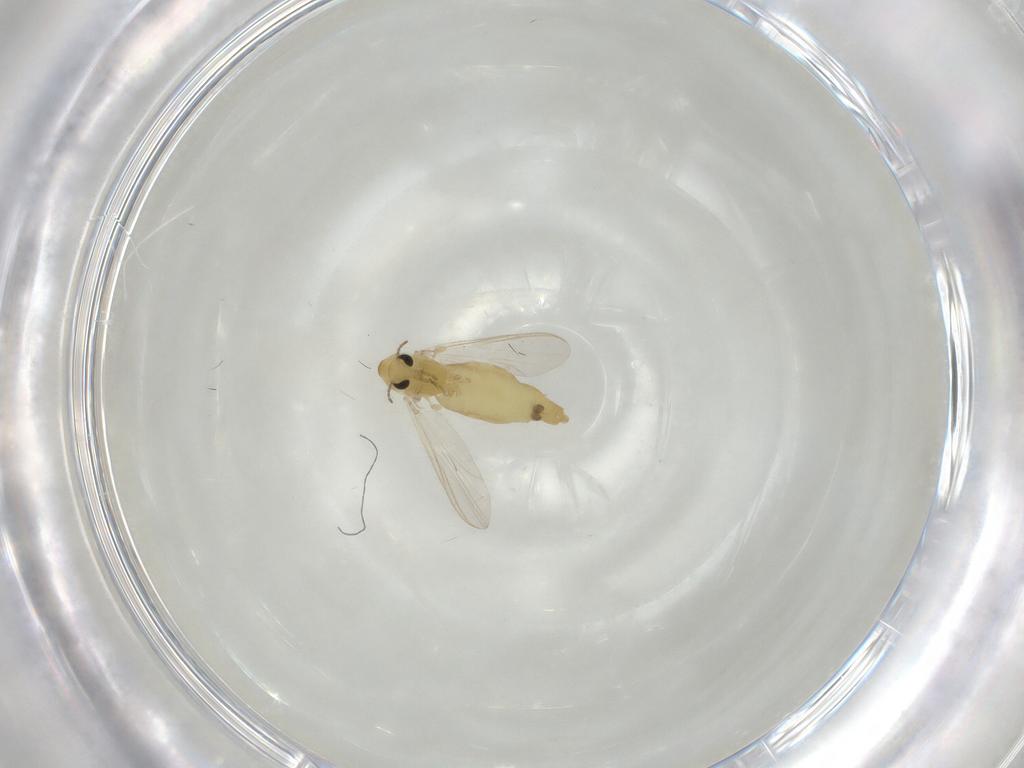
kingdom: Animalia
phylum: Arthropoda
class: Insecta
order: Diptera
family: Chironomidae
